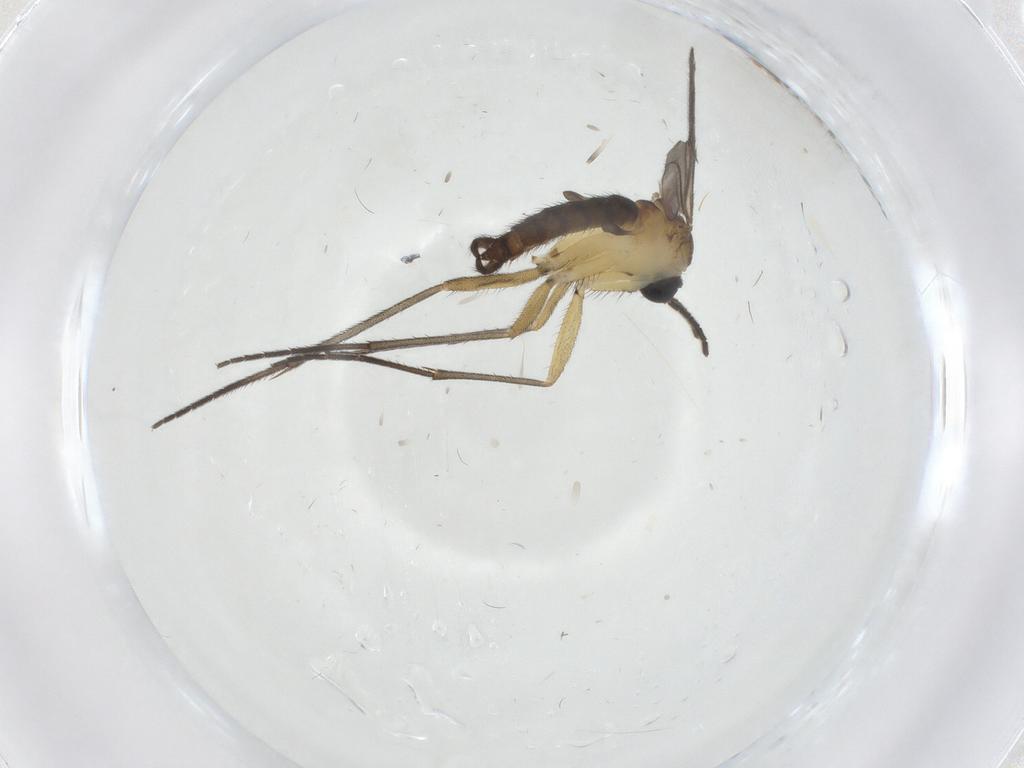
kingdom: Animalia
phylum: Arthropoda
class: Insecta
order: Diptera
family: Sciaridae
